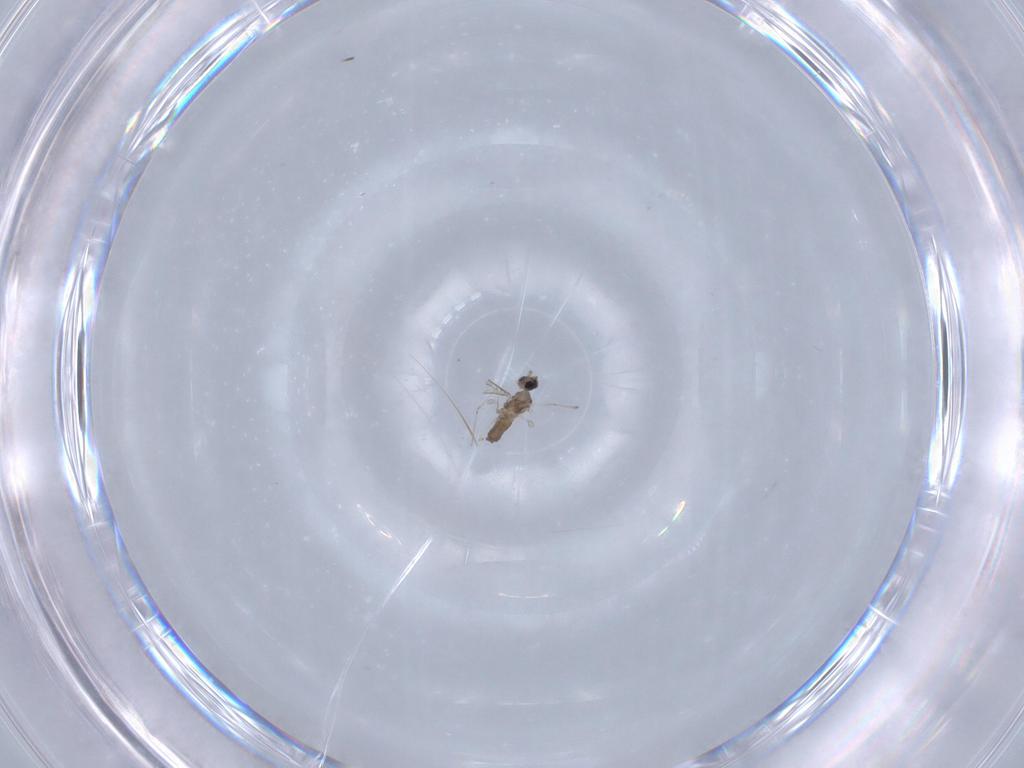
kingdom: Animalia
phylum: Arthropoda
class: Insecta
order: Diptera
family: Cecidomyiidae
